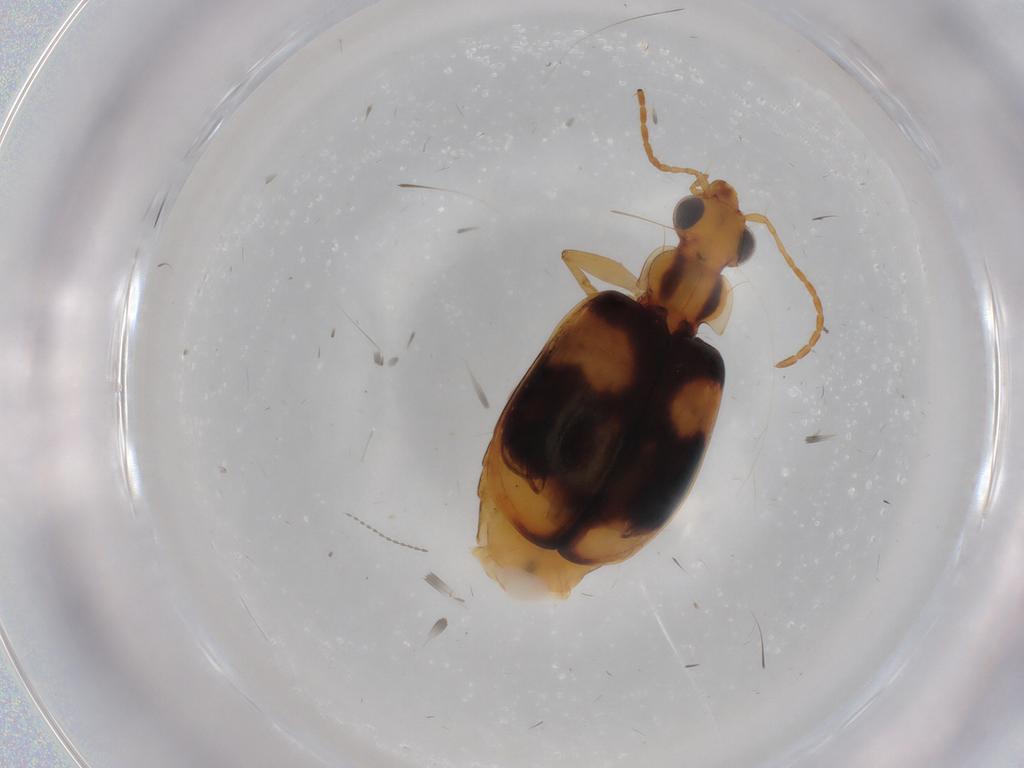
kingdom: Animalia
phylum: Arthropoda
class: Insecta
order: Coleoptera
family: Carabidae
